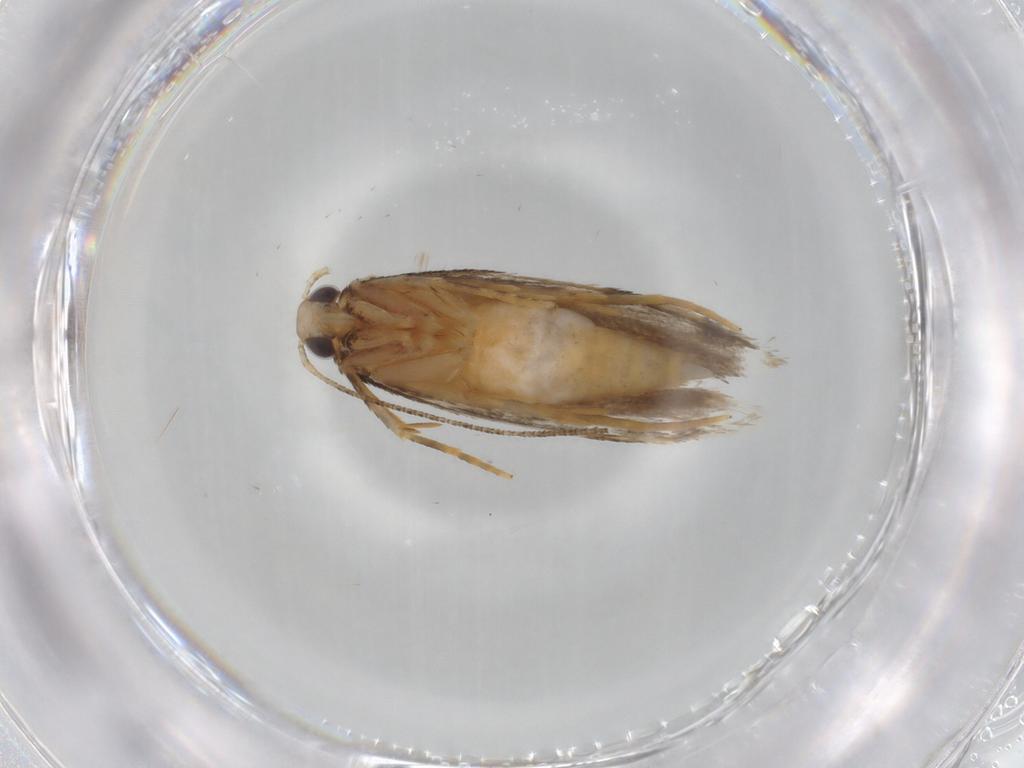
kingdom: Animalia
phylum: Arthropoda
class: Insecta
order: Lepidoptera
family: Autostichidae
